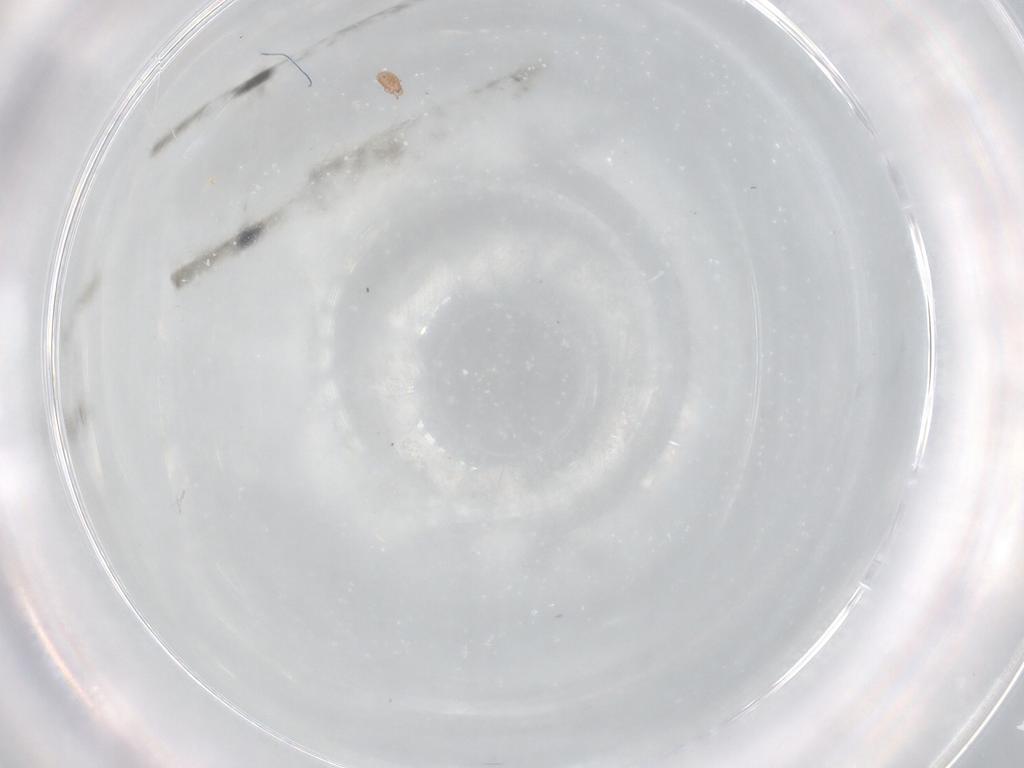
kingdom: Animalia
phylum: Arthropoda
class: Arachnida
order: Sarcoptiformes
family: Phenopelopidae
